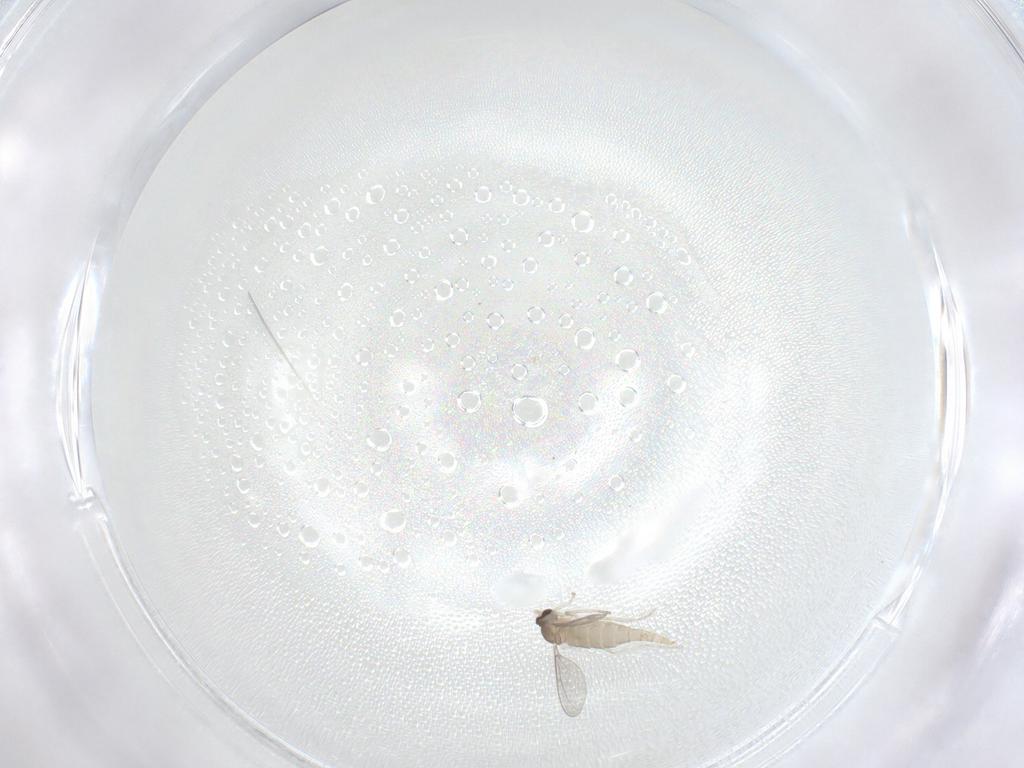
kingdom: Animalia
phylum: Arthropoda
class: Insecta
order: Diptera
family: Cecidomyiidae
